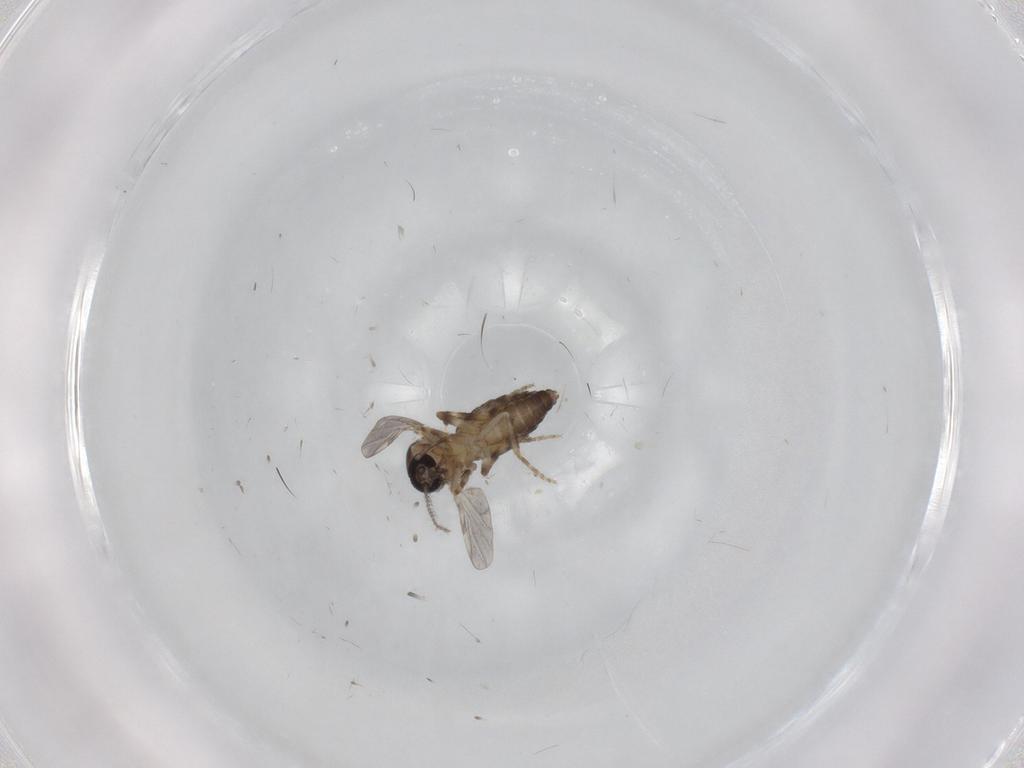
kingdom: Animalia
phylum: Arthropoda
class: Insecta
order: Diptera
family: Ceratopogonidae
